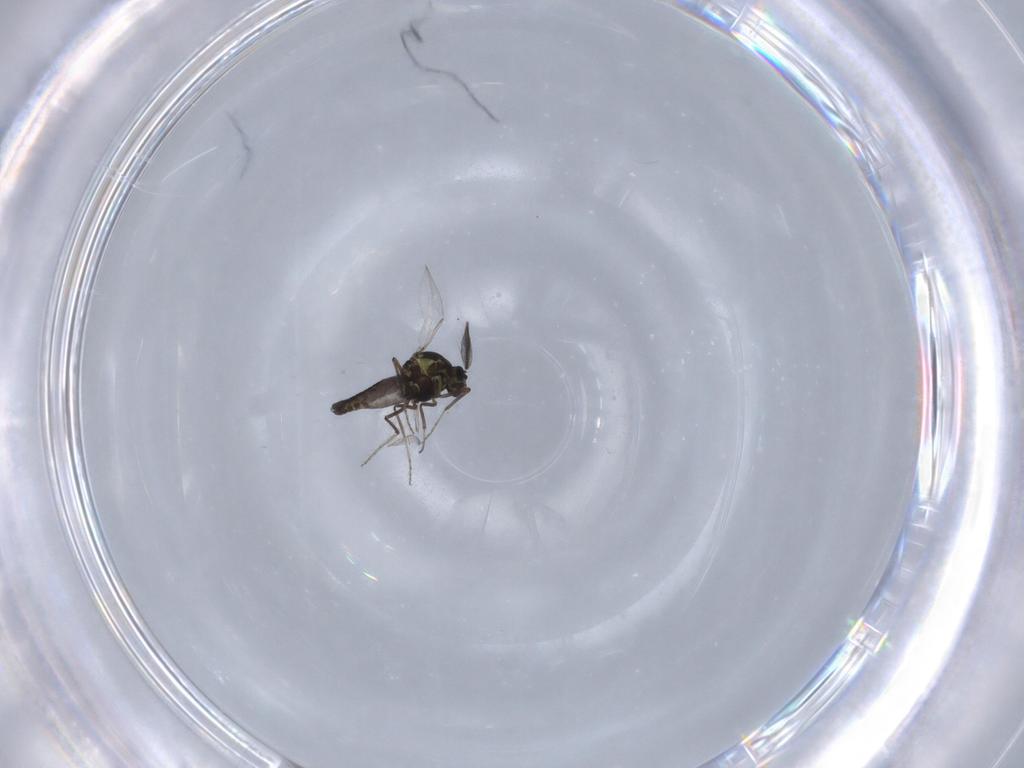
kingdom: Animalia
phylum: Arthropoda
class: Insecta
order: Diptera
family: Ceratopogonidae
